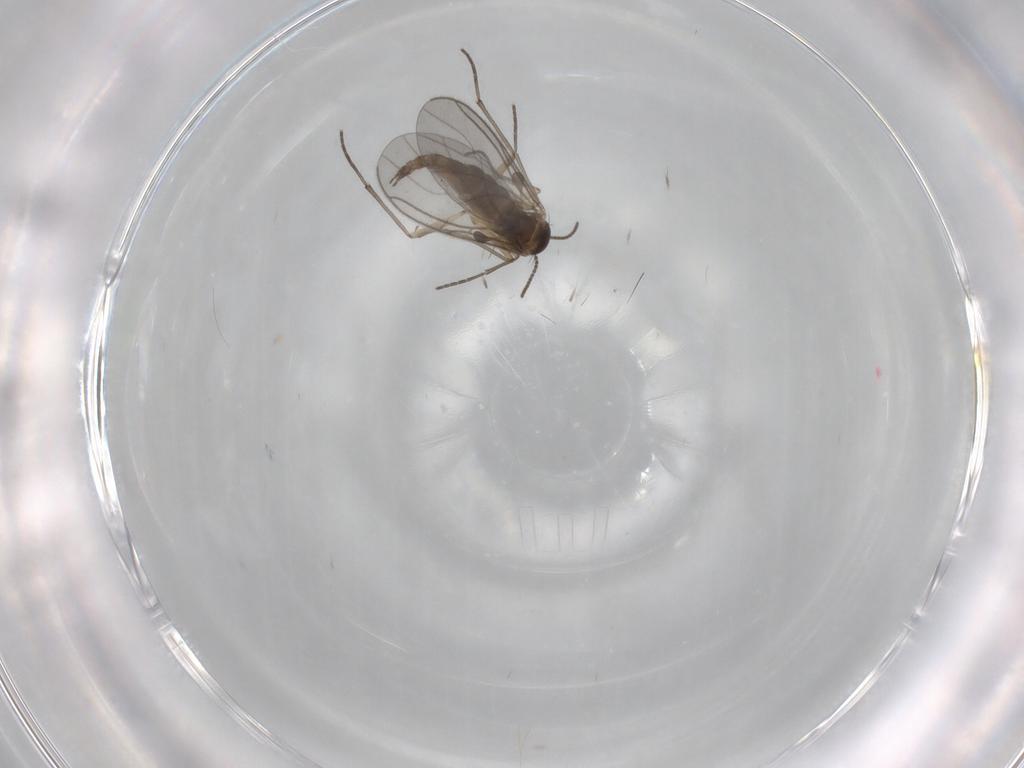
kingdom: Animalia
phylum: Arthropoda
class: Insecta
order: Diptera
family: Sciaridae
